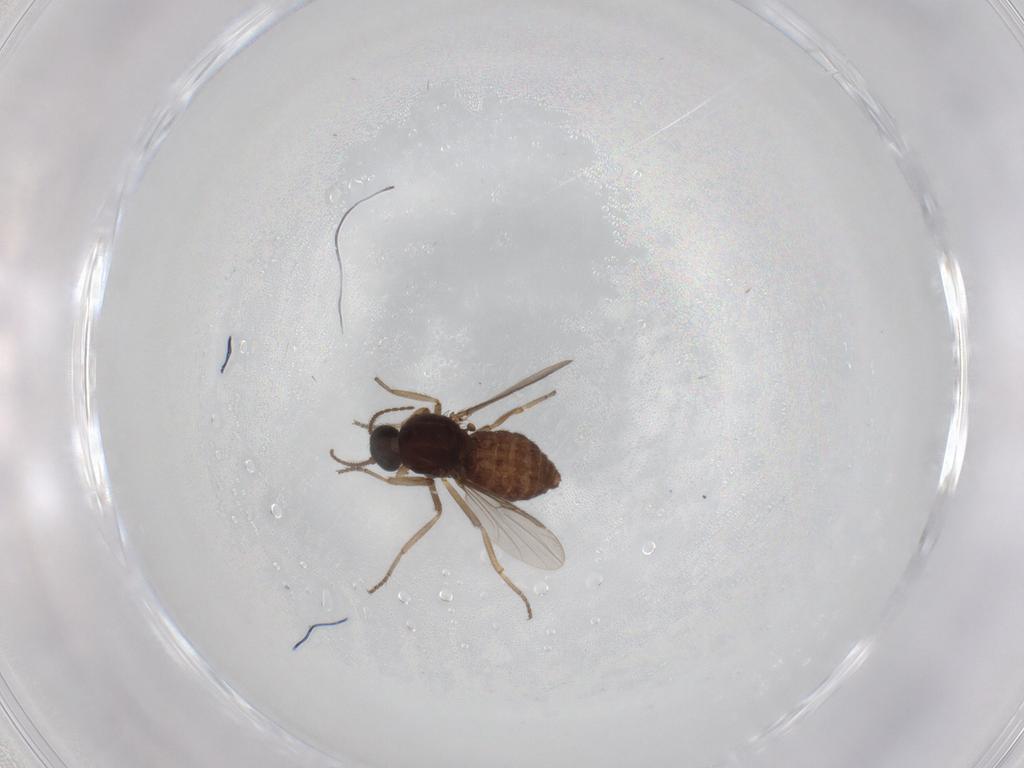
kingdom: Animalia
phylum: Arthropoda
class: Insecta
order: Diptera
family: Ceratopogonidae
